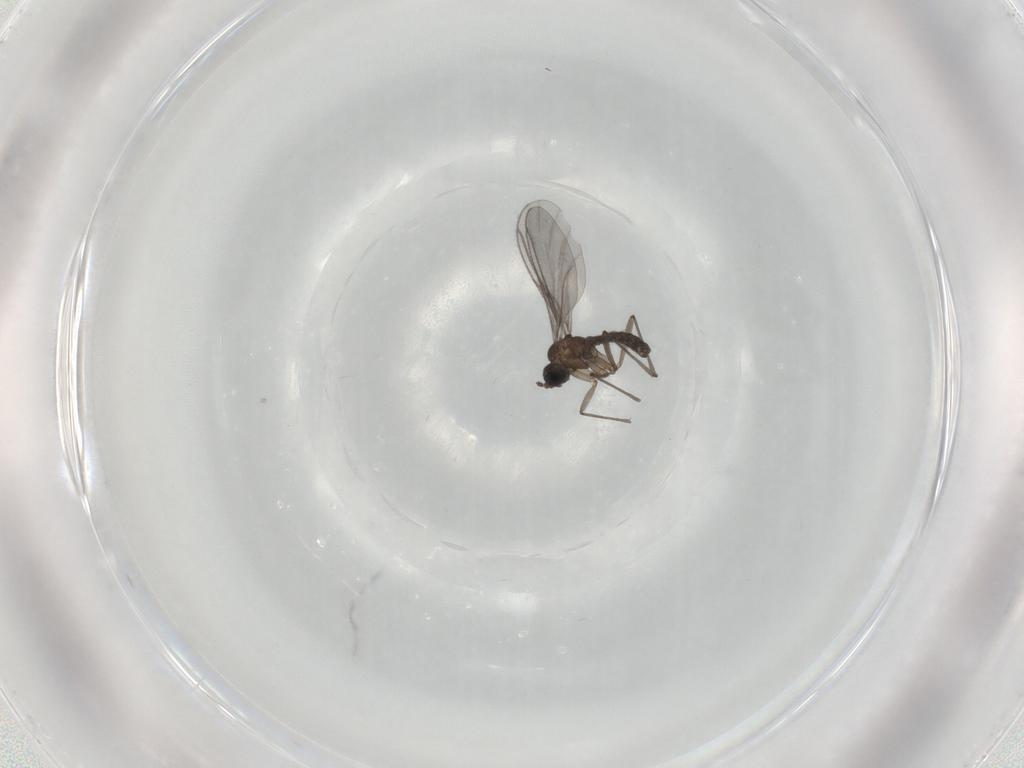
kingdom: Animalia
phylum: Arthropoda
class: Insecta
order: Diptera
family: Sciaridae
